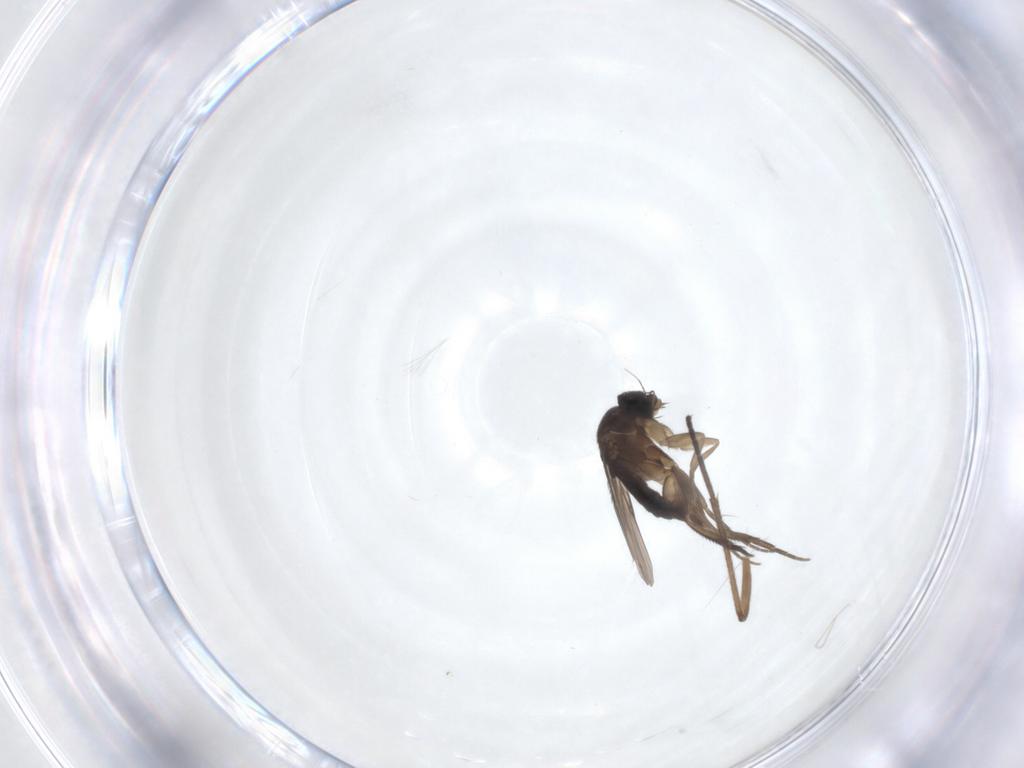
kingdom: Animalia
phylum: Arthropoda
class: Insecta
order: Diptera
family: Phoridae
